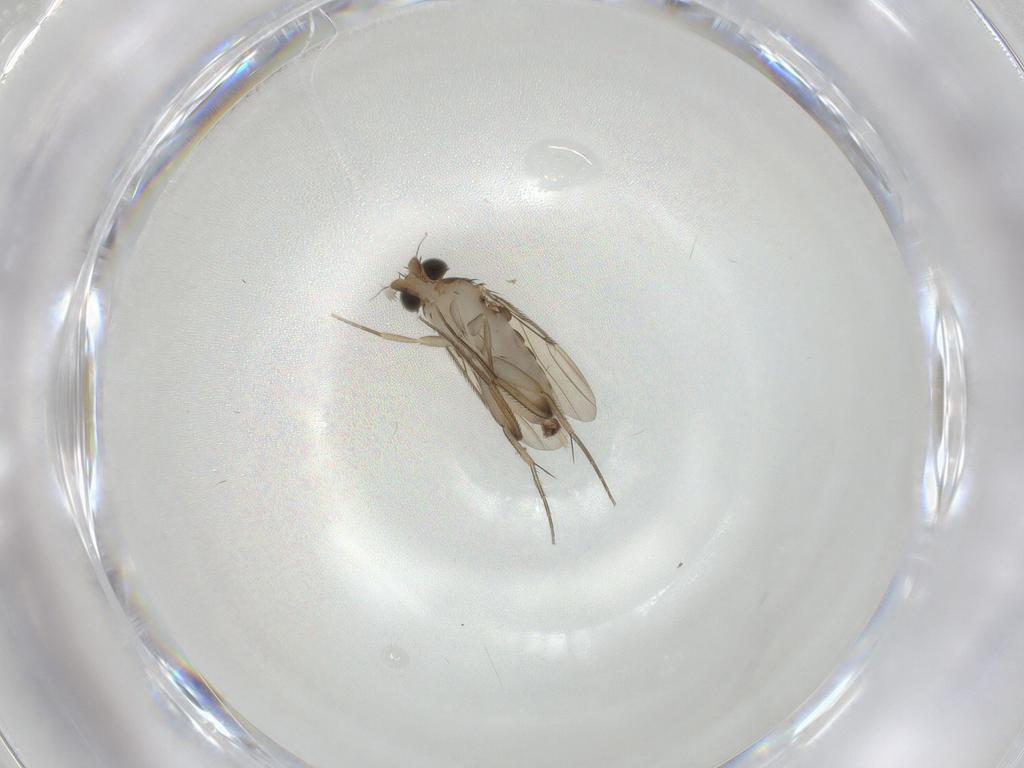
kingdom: Animalia
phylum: Arthropoda
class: Insecta
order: Diptera
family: Phoridae
